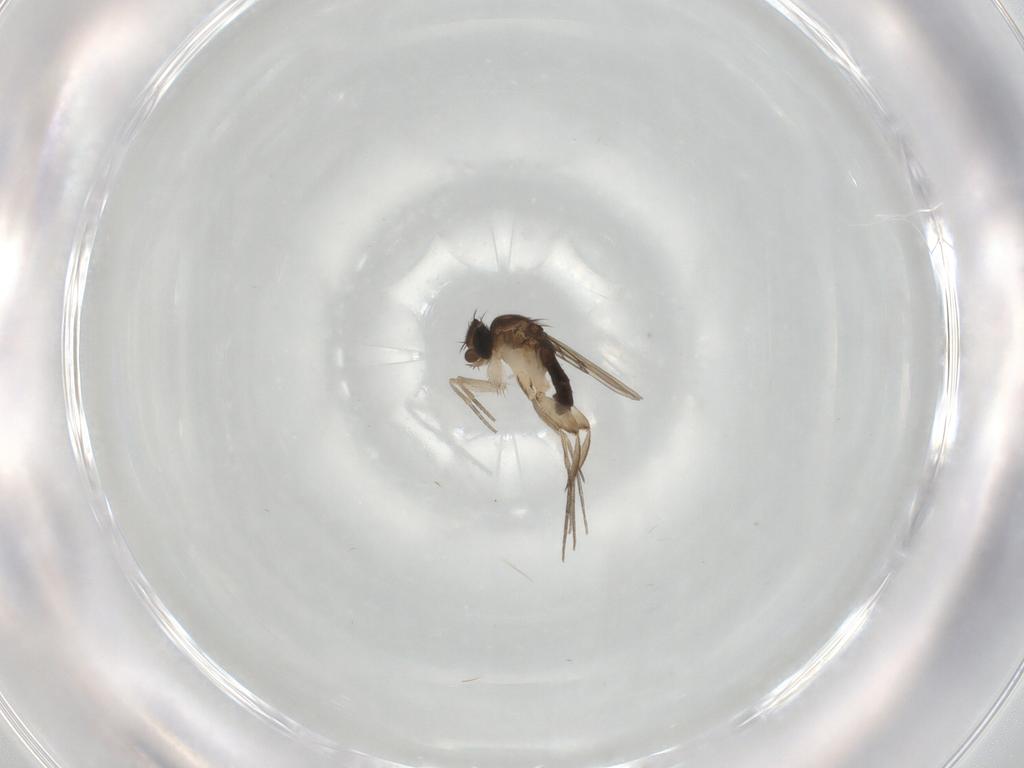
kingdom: Animalia
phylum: Arthropoda
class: Insecta
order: Diptera
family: Phoridae
